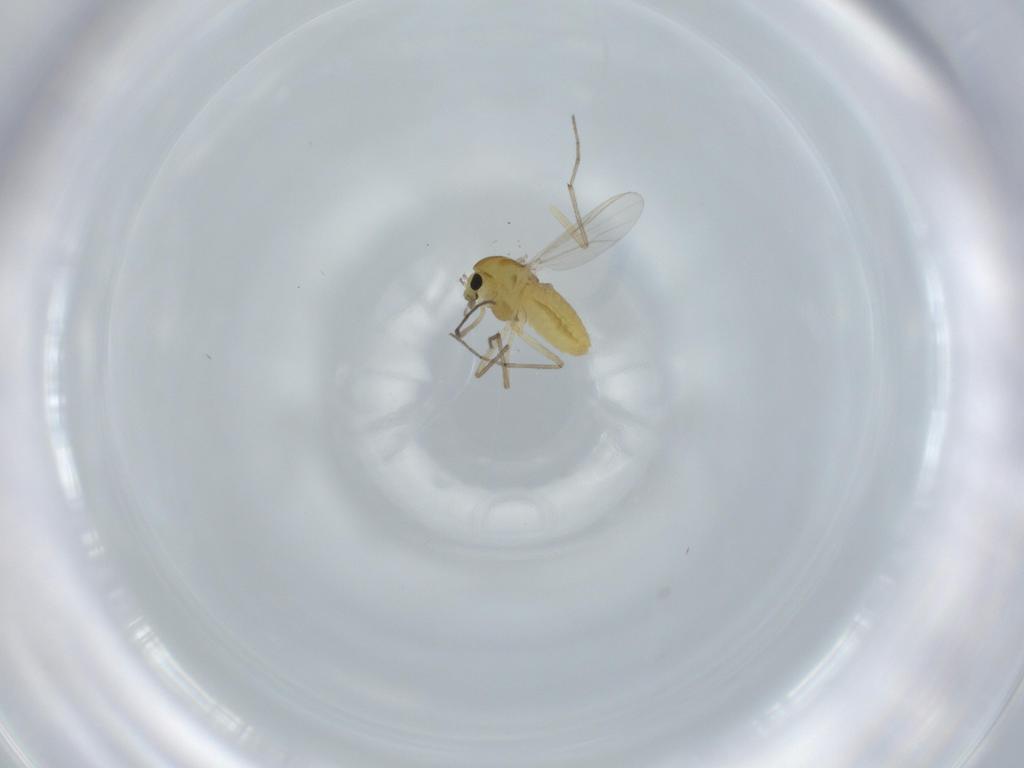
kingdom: Animalia
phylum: Arthropoda
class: Insecta
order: Diptera
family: Chironomidae
